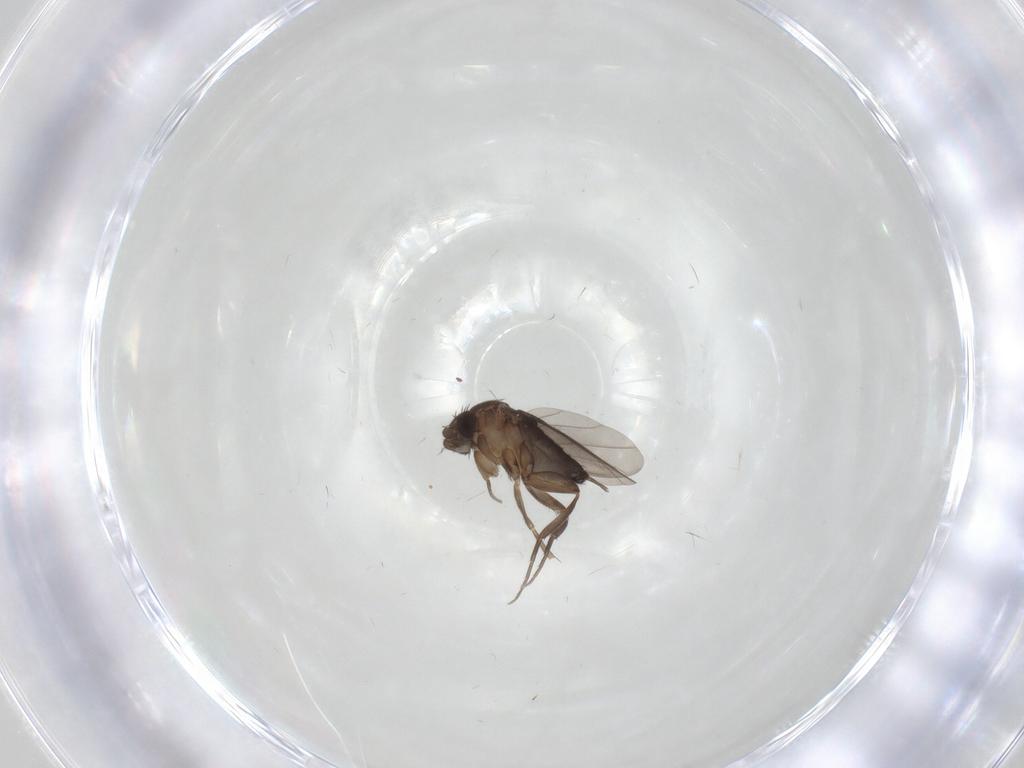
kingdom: Animalia
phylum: Arthropoda
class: Insecta
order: Diptera
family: Phoridae
